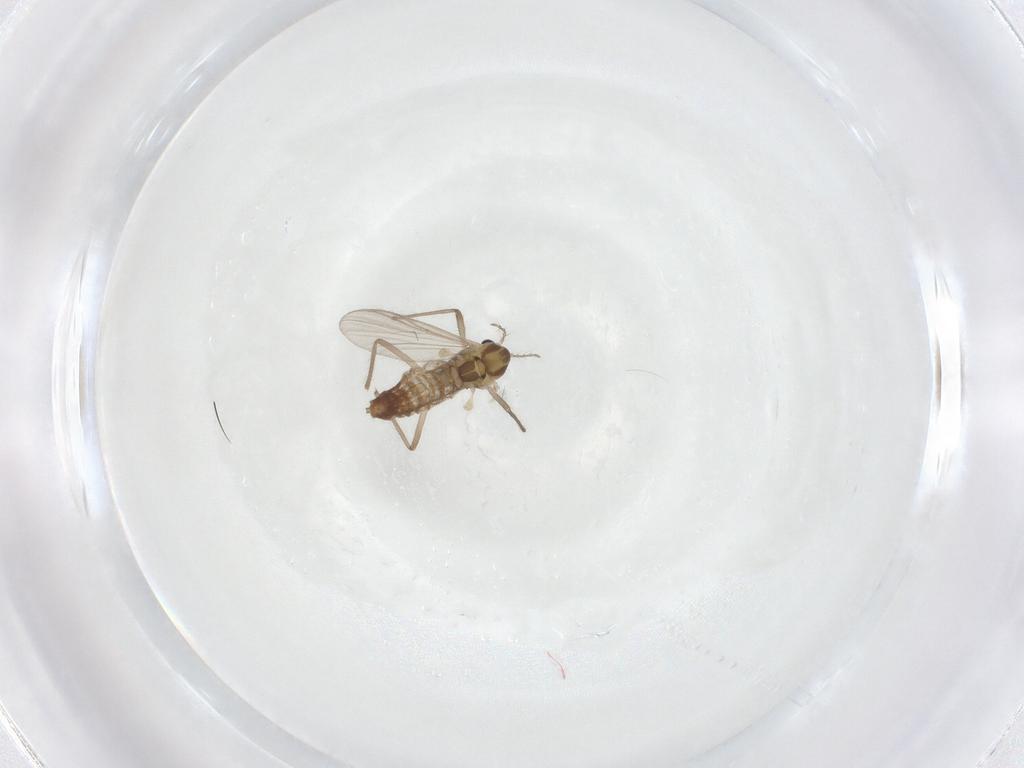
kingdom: Animalia
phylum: Arthropoda
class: Insecta
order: Diptera
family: Chironomidae
